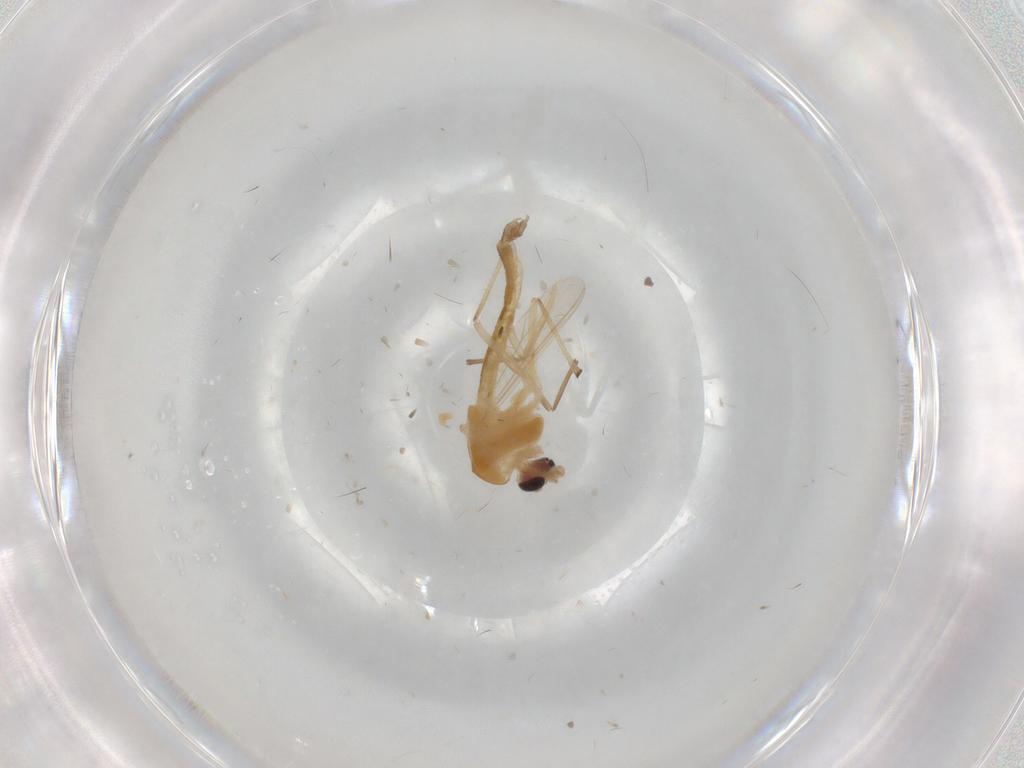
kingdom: Animalia
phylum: Arthropoda
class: Insecta
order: Diptera
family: Chironomidae
